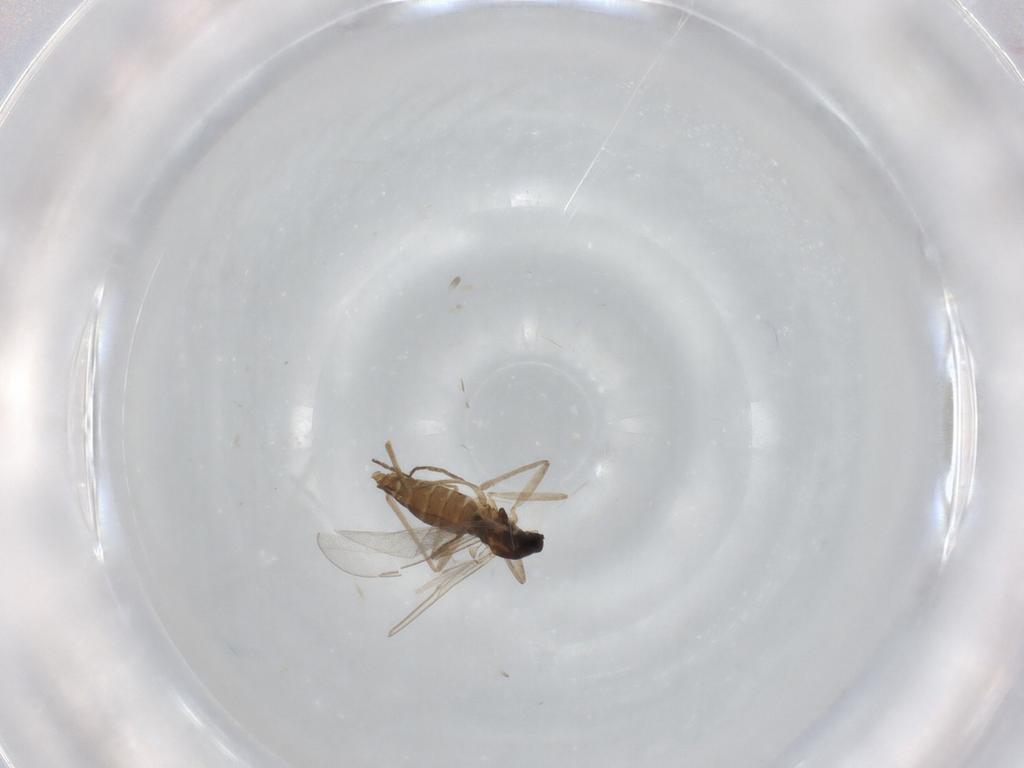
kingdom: Animalia
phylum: Arthropoda
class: Insecta
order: Diptera
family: Cecidomyiidae
